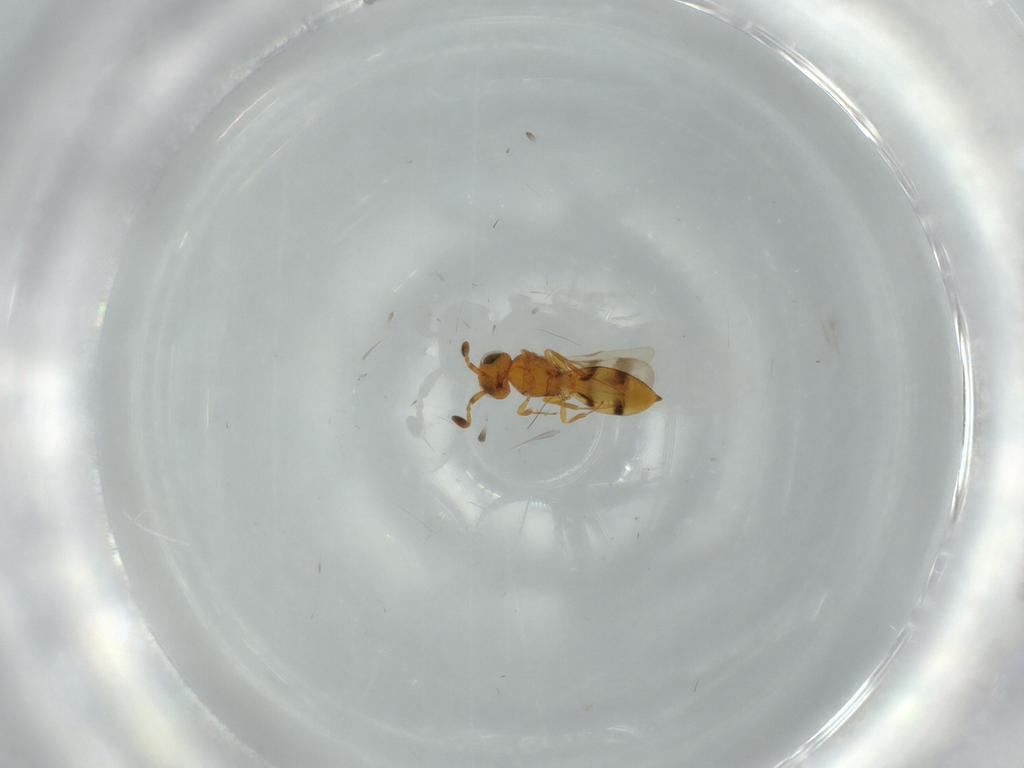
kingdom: Animalia
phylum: Arthropoda
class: Insecta
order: Hymenoptera
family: Scelionidae
